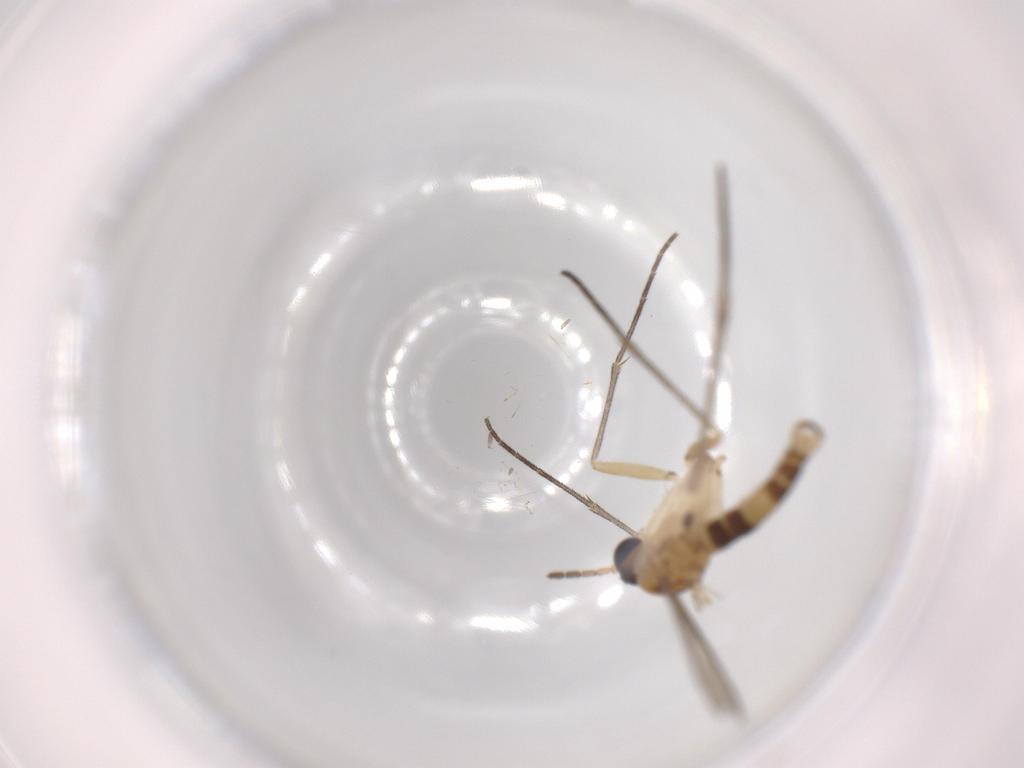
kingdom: Animalia
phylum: Arthropoda
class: Insecta
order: Diptera
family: Sciaridae
